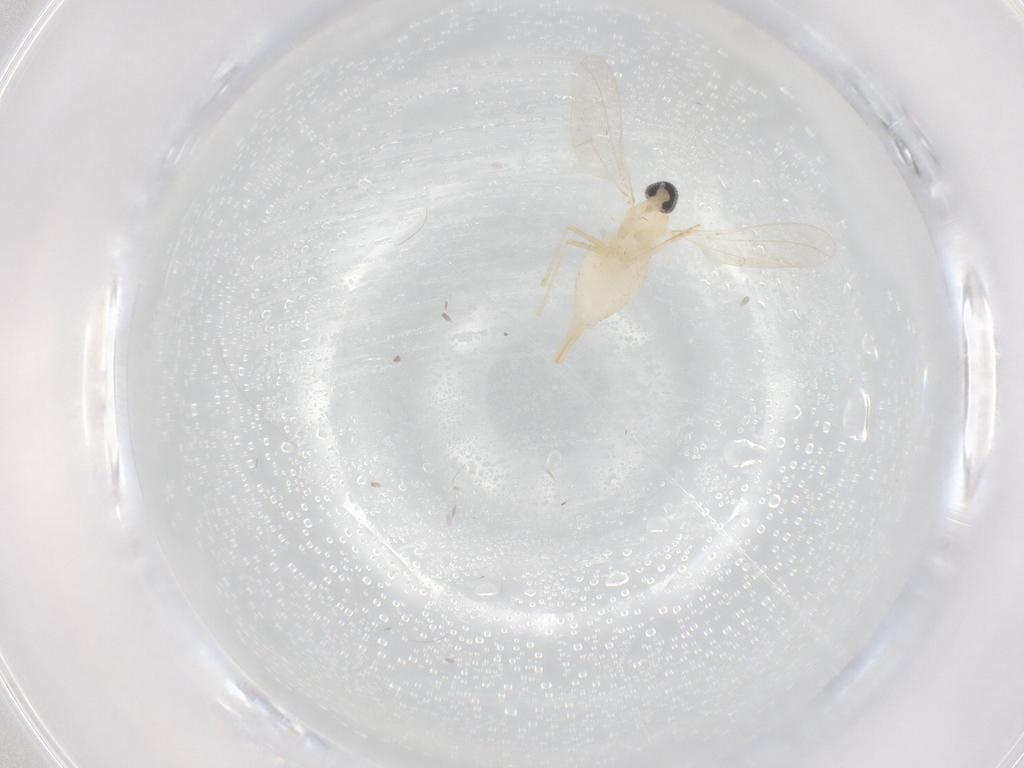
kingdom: Animalia
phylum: Arthropoda
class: Insecta
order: Diptera
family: Cecidomyiidae
